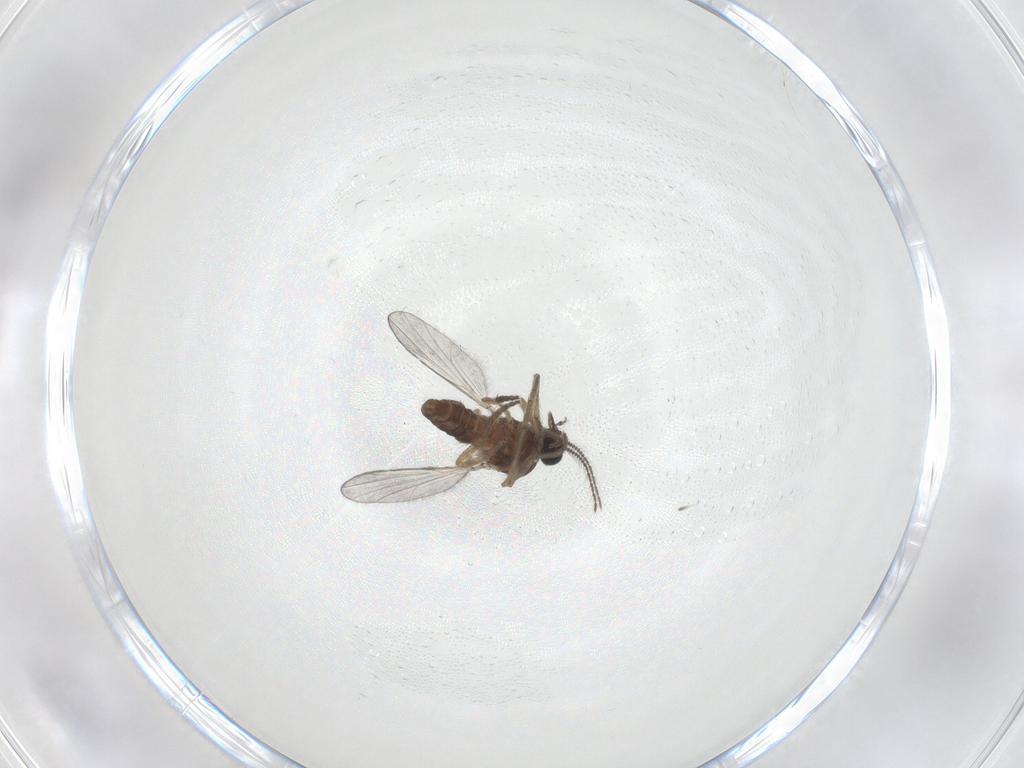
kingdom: Animalia
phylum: Arthropoda
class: Insecta
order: Diptera
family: Ceratopogonidae
